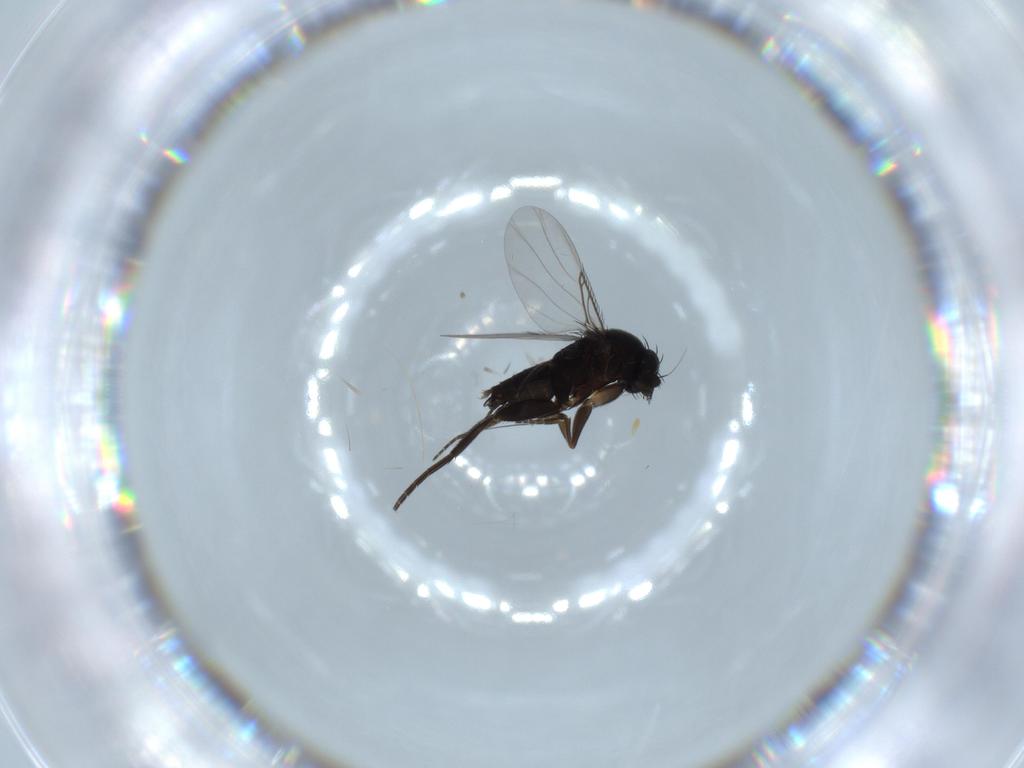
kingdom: Animalia
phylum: Arthropoda
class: Insecta
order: Diptera
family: Phoridae
